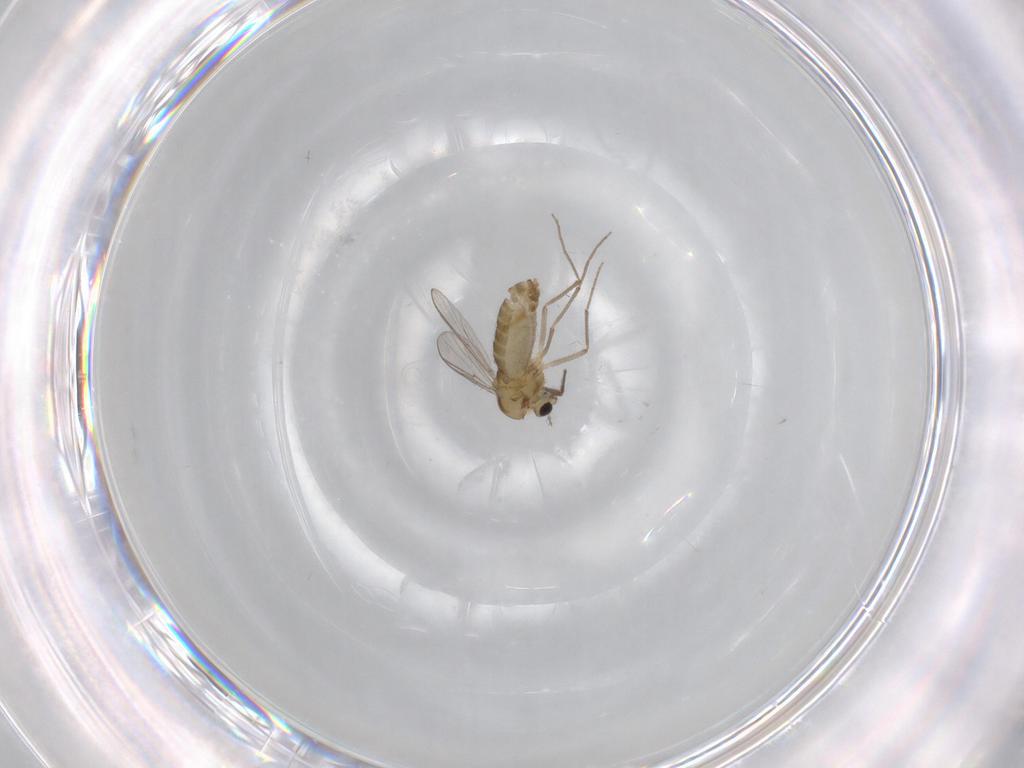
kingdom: Animalia
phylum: Arthropoda
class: Insecta
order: Diptera
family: Chironomidae
